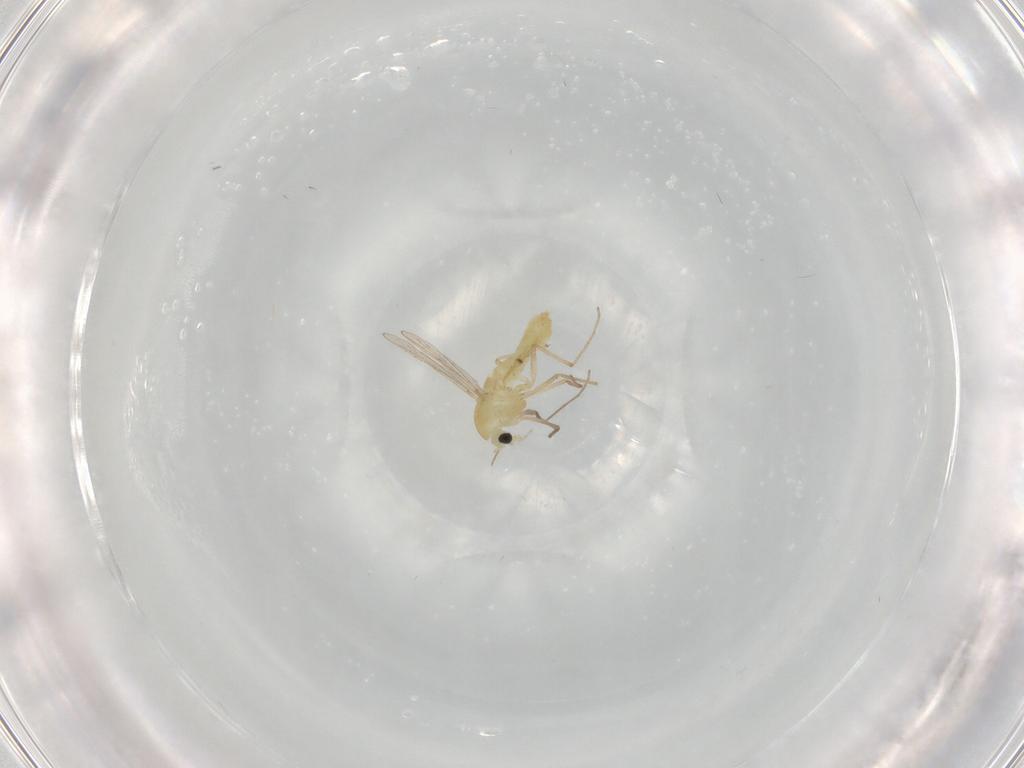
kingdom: Animalia
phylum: Arthropoda
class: Insecta
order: Diptera
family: Chironomidae
